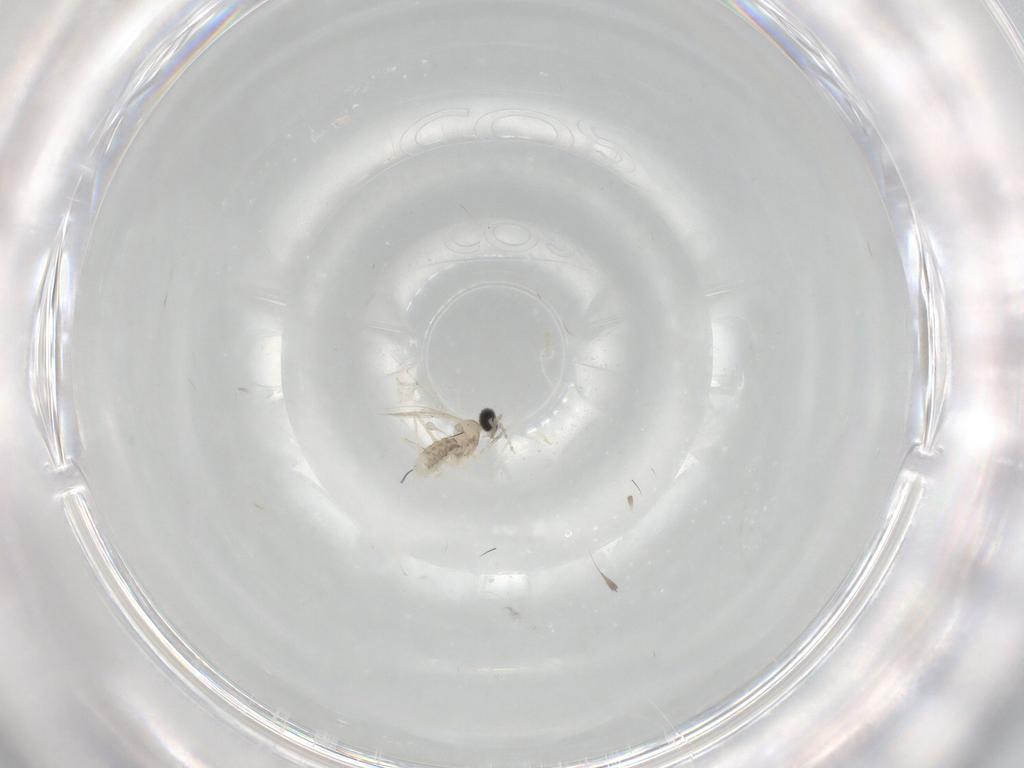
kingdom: Animalia
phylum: Arthropoda
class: Insecta
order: Diptera
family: Cecidomyiidae
